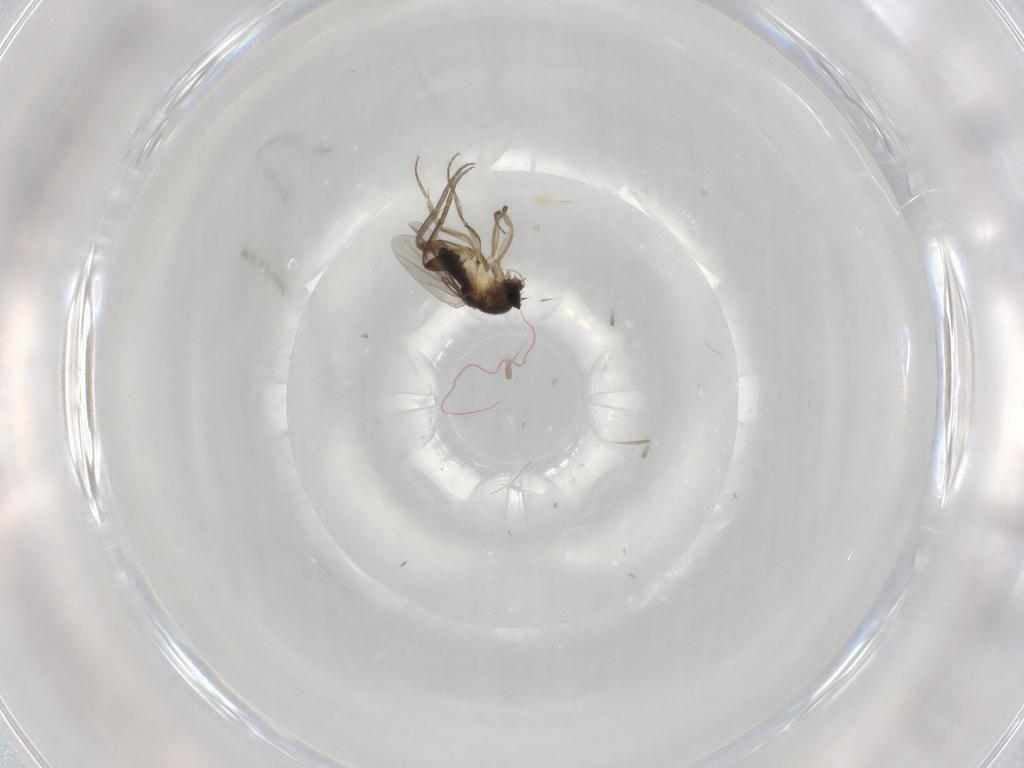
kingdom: Animalia
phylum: Arthropoda
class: Insecta
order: Diptera
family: Phoridae
